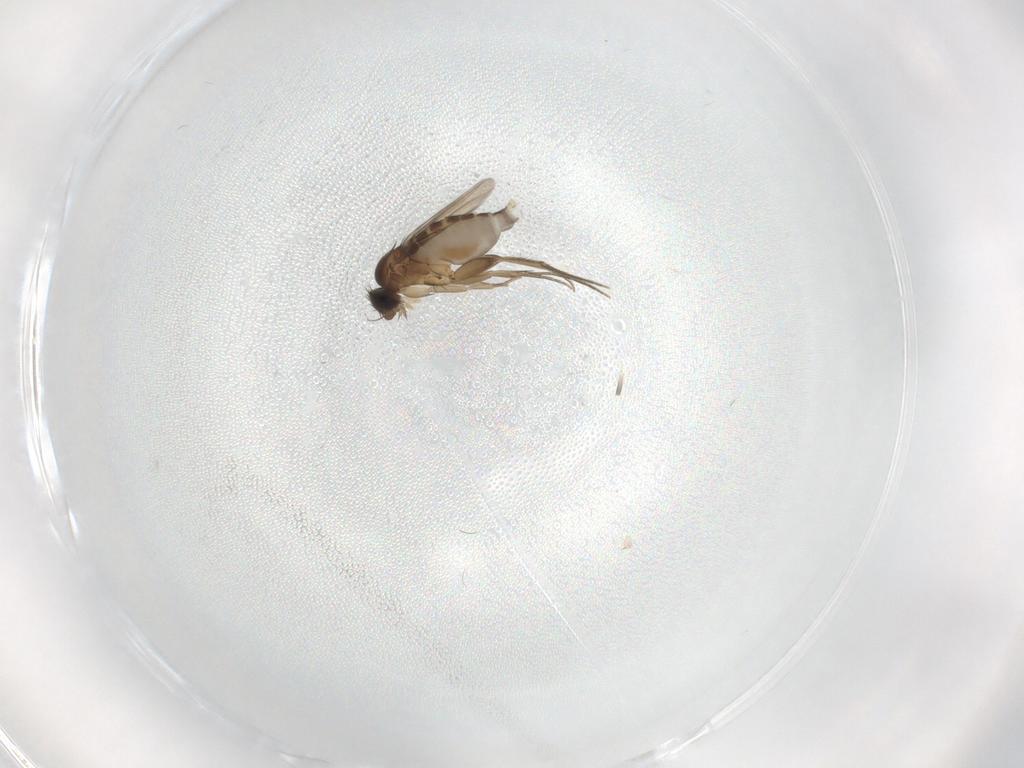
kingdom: Animalia
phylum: Arthropoda
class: Insecta
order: Diptera
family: Phoridae
